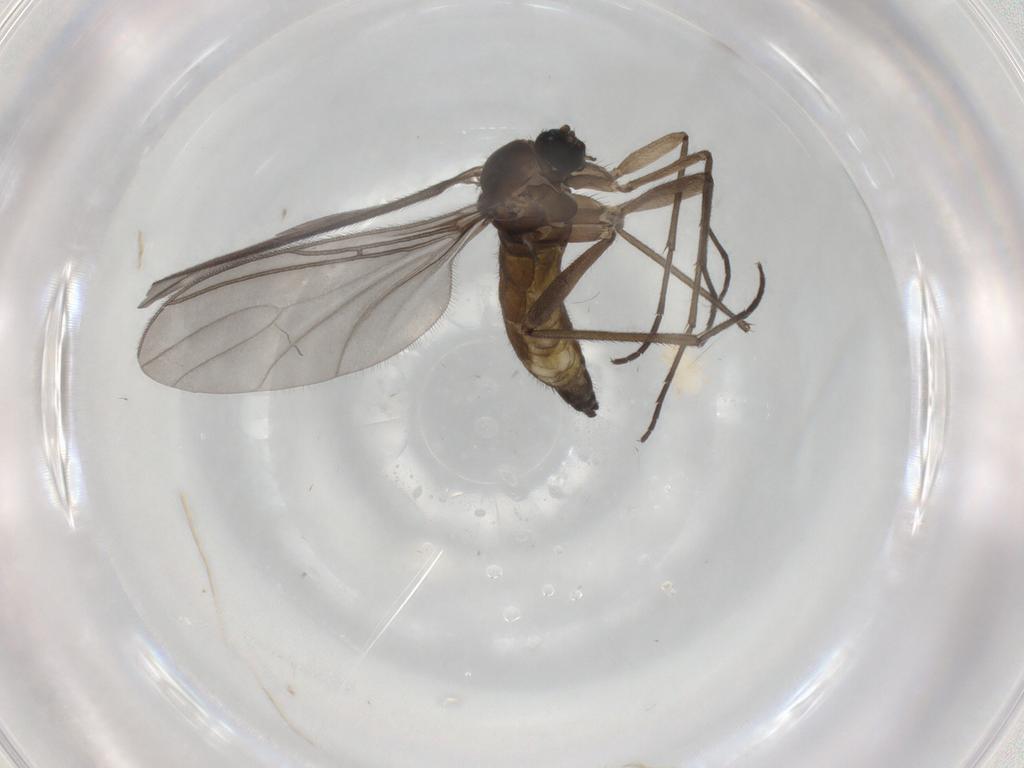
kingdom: Animalia
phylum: Arthropoda
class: Insecta
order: Diptera
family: Sciaridae
